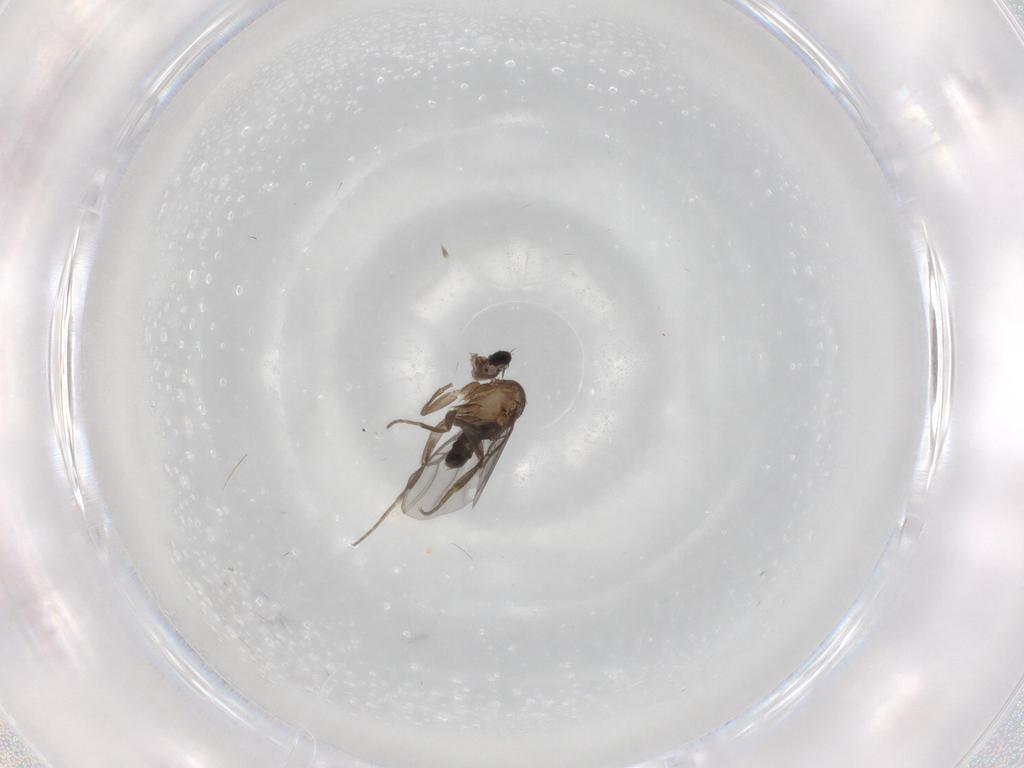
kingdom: Animalia
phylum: Arthropoda
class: Insecta
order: Diptera
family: Phoridae
